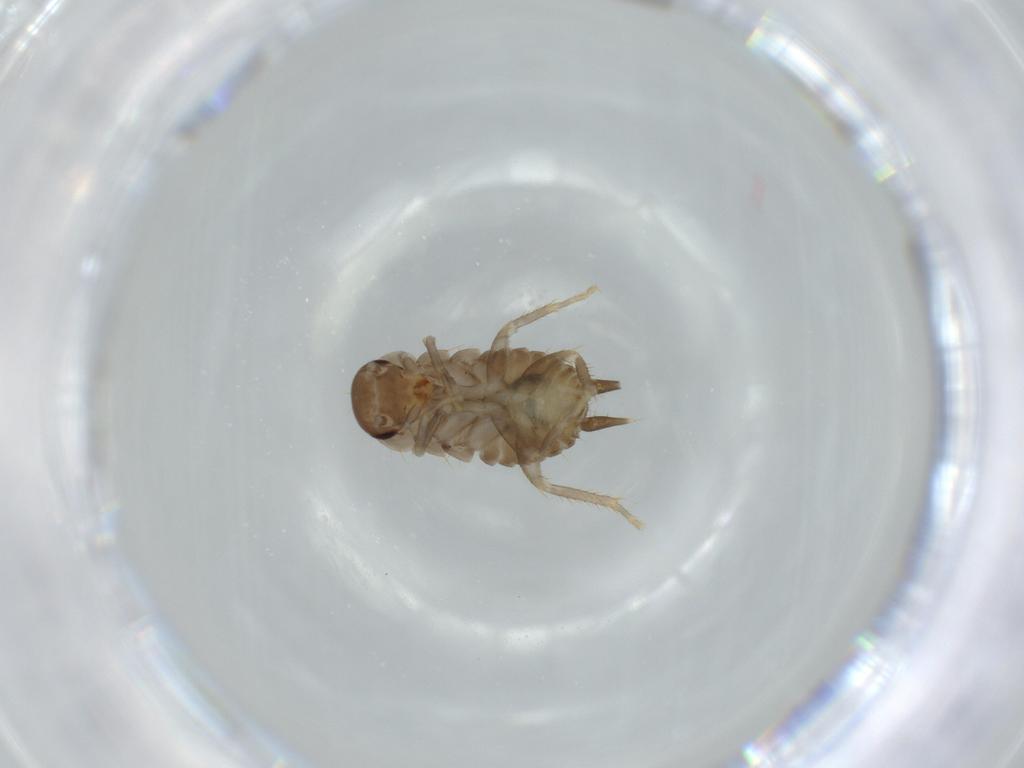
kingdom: Animalia
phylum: Arthropoda
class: Insecta
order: Blattodea
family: Ectobiidae
